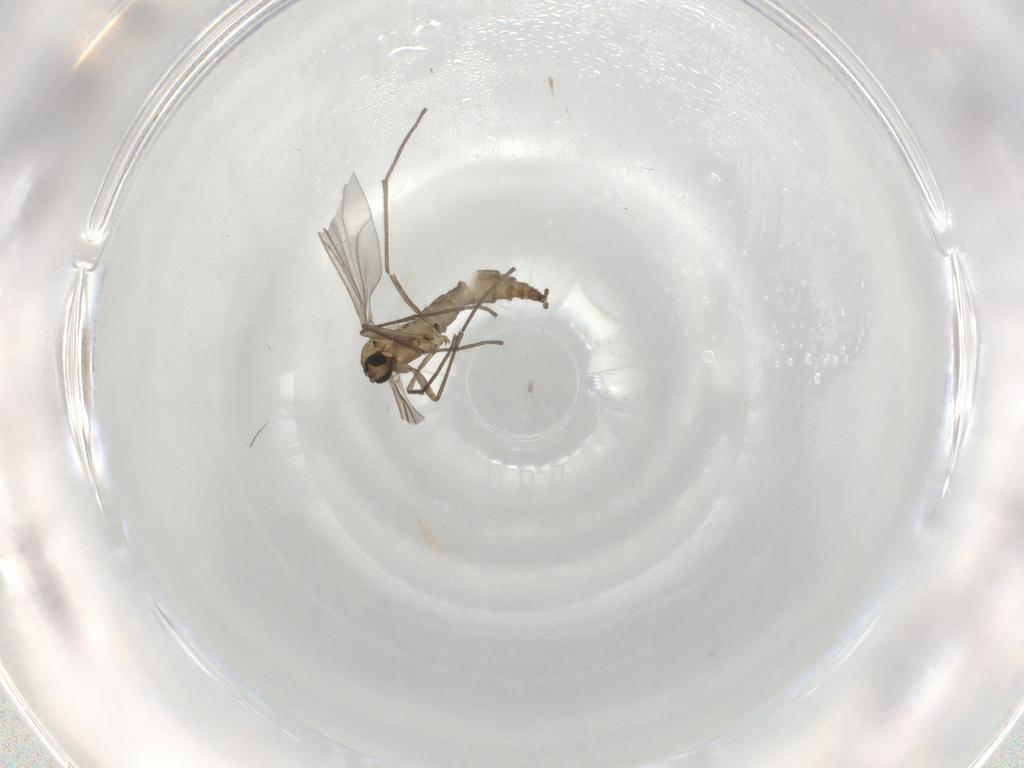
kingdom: Animalia
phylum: Arthropoda
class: Insecta
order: Diptera
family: Sciaridae
